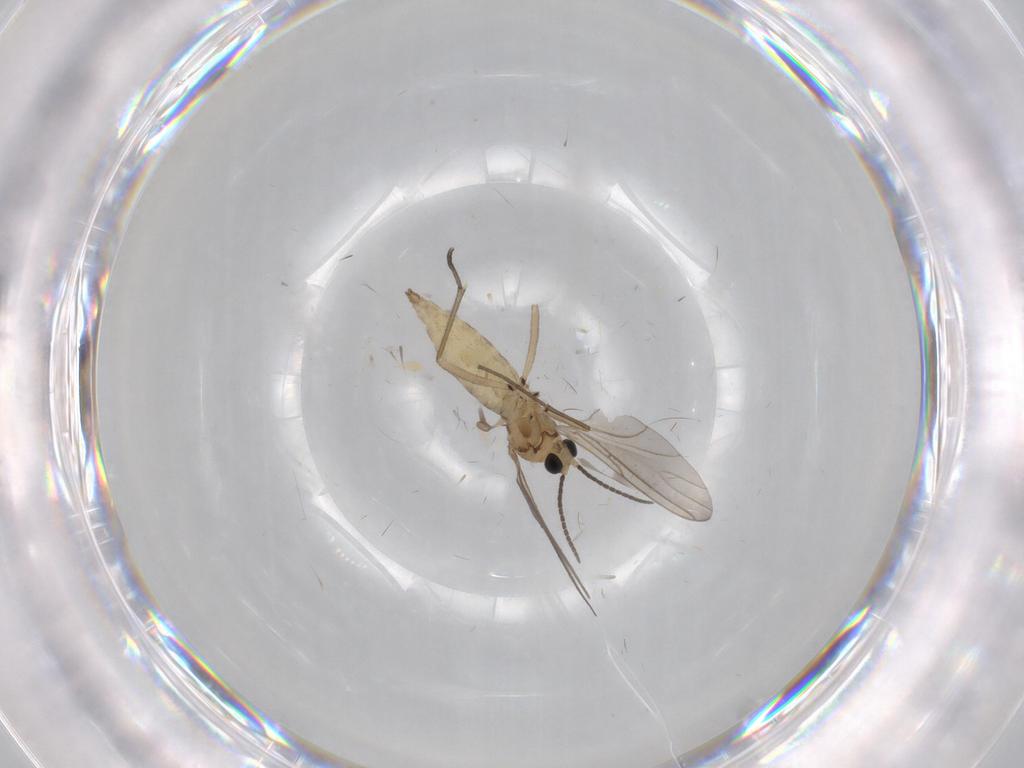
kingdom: Animalia
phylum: Arthropoda
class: Insecta
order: Diptera
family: Sciaridae
